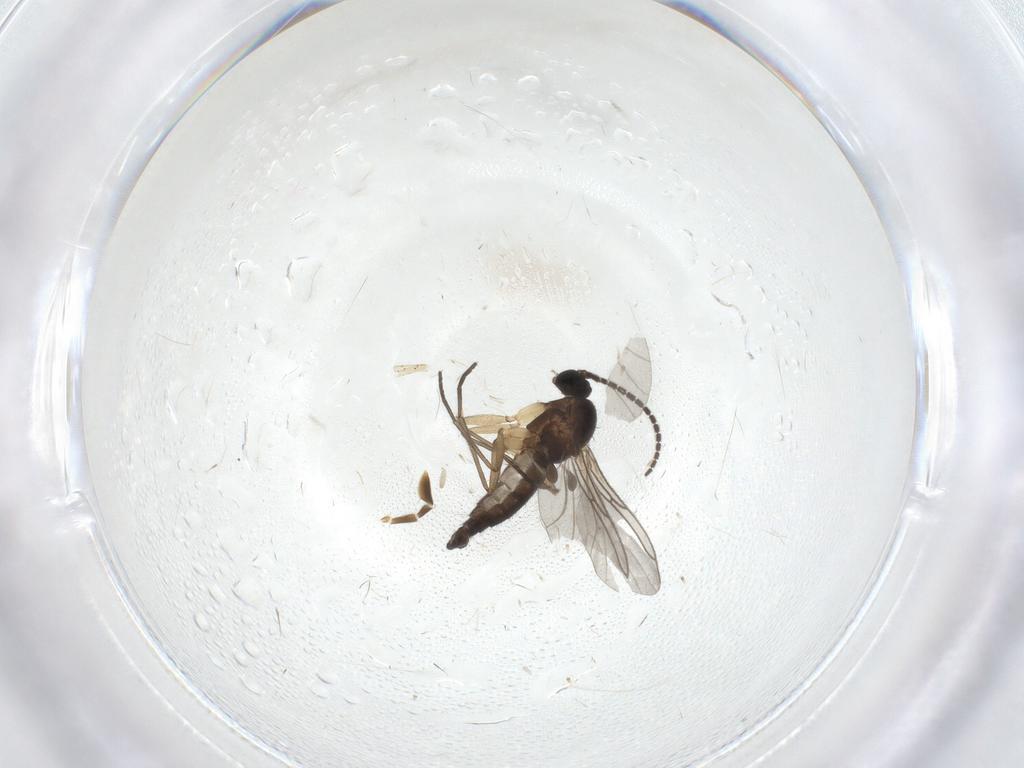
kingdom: Animalia
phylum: Arthropoda
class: Insecta
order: Diptera
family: Sciaridae
